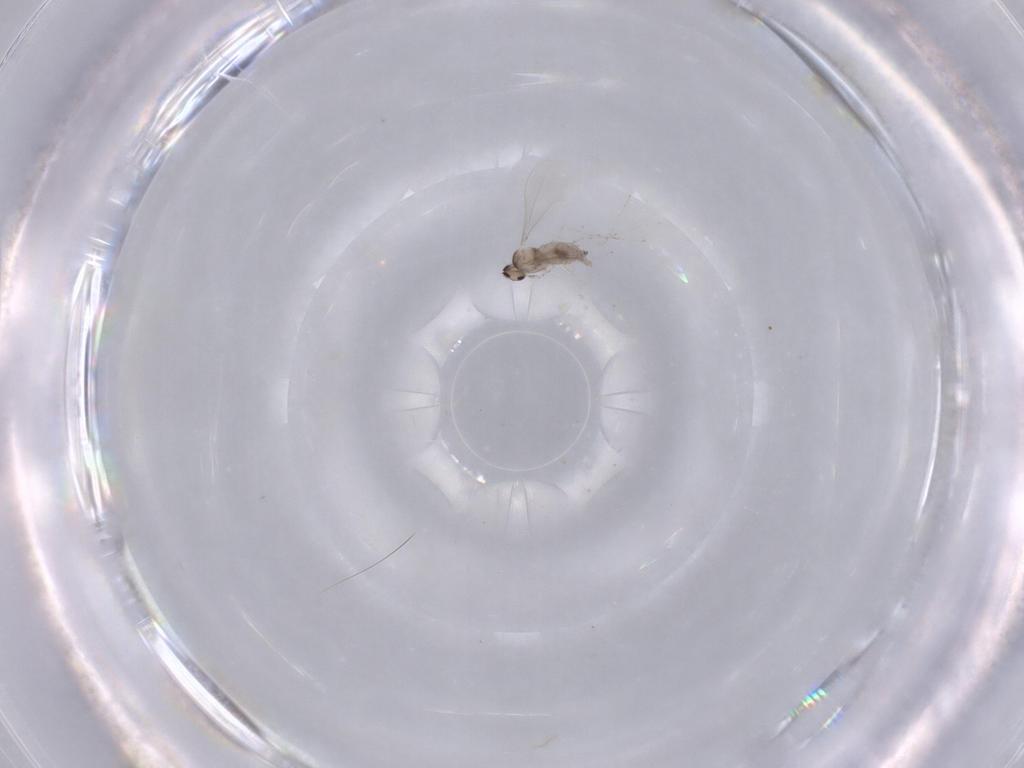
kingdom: Animalia
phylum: Arthropoda
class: Insecta
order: Diptera
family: Cecidomyiidae
